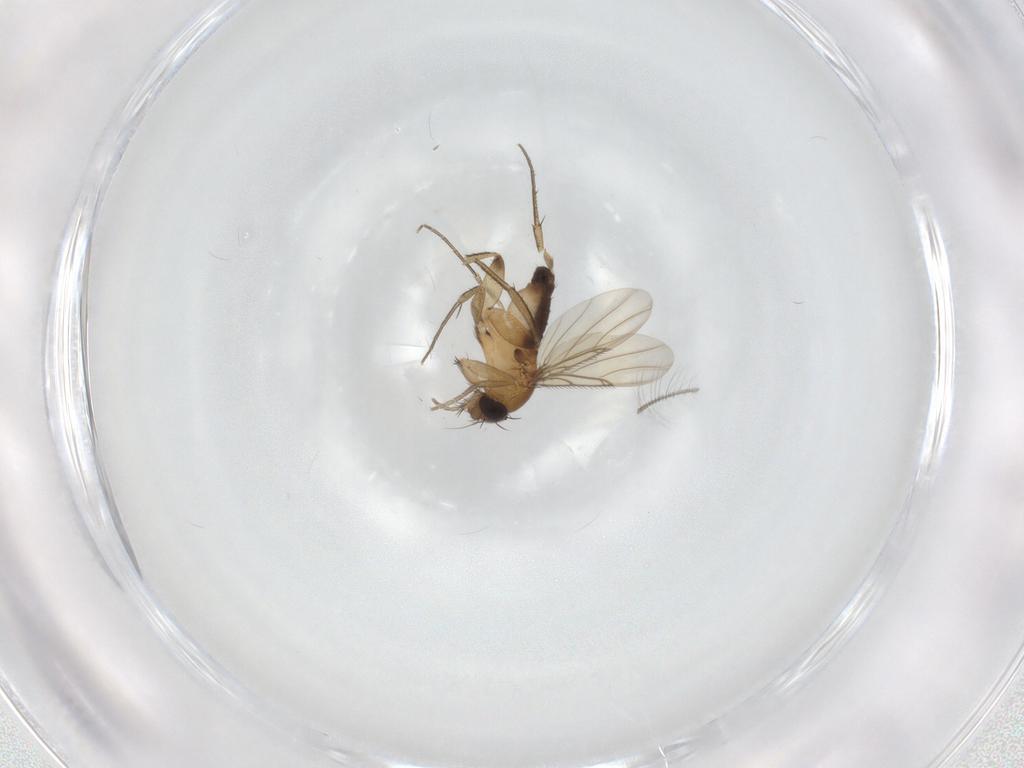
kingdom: Animalia
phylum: Arthropoda
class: Insecta
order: Diptera
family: Phoridae
